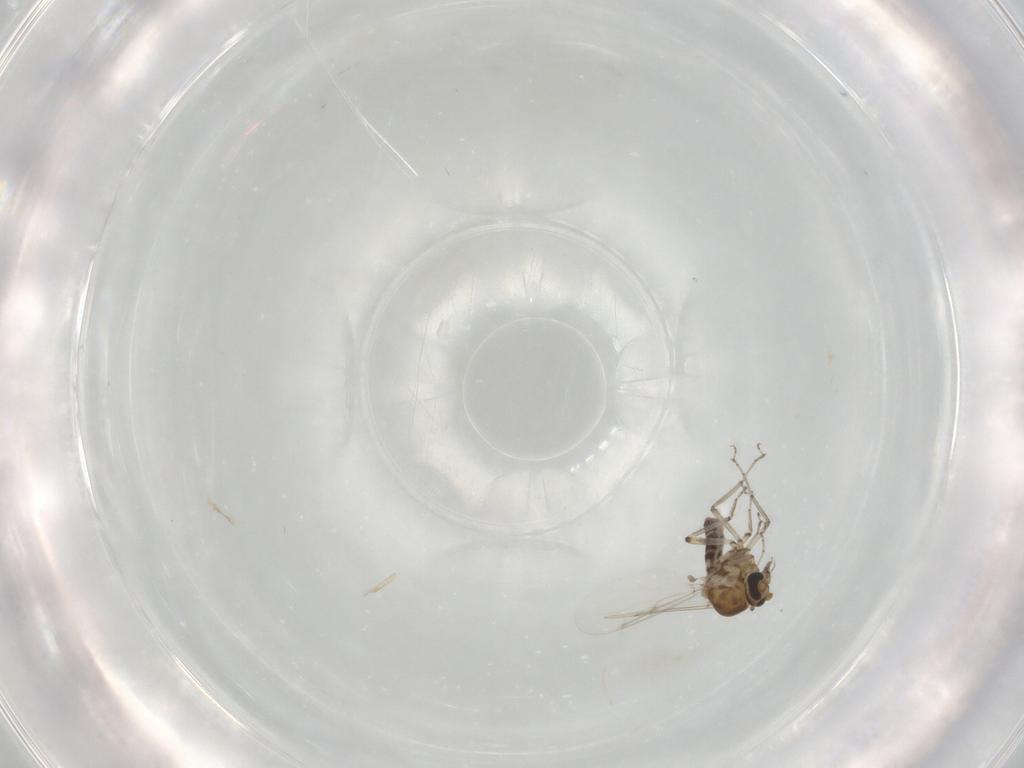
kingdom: Animalia
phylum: Arthropoda
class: Insecta
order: Diptera
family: Ceratopogonidae
